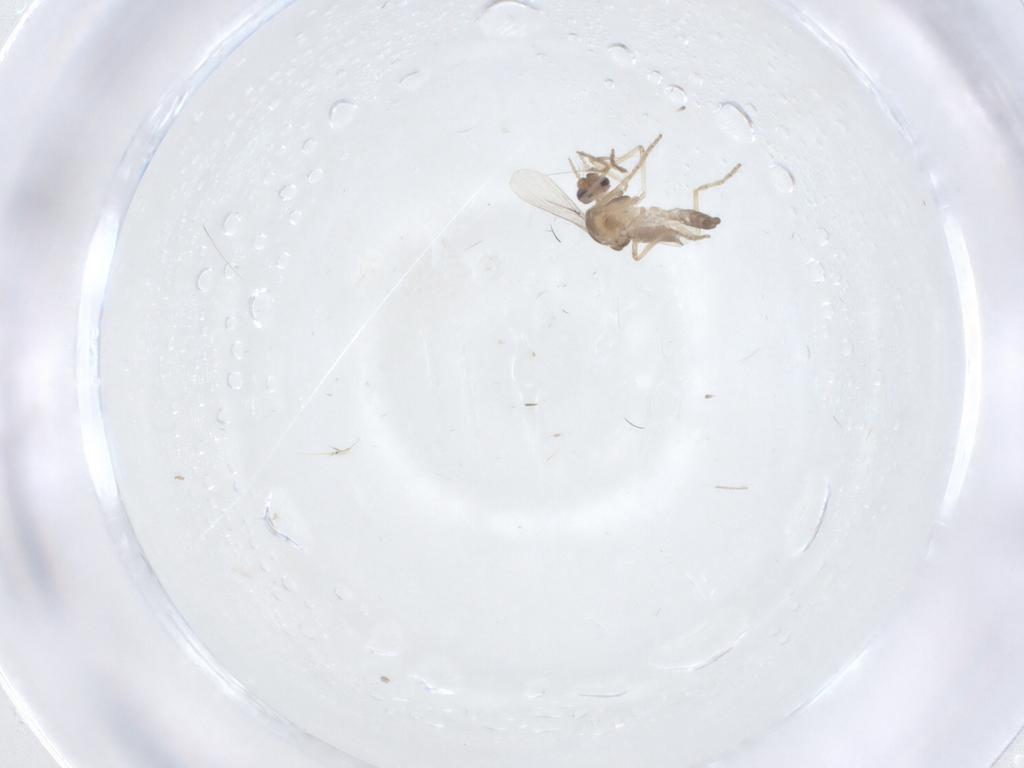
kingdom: Animalia
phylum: Arthropoda
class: Insecta
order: Diptera
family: Ceratopogonidae
